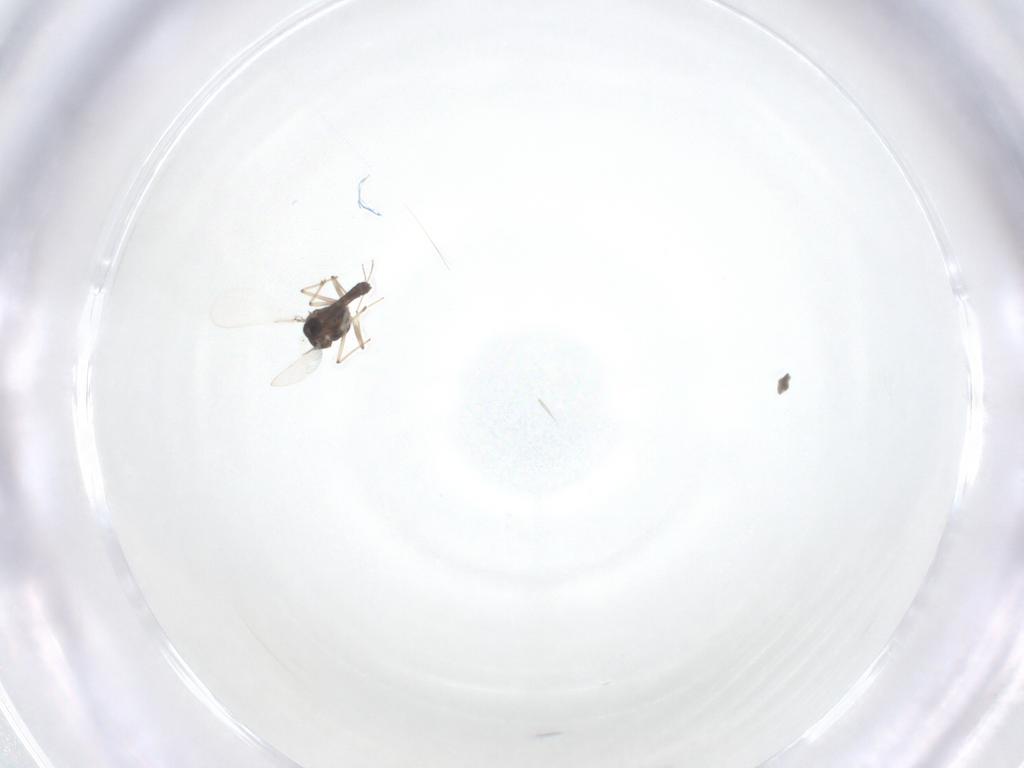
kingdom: Animalia
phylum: Arthropoda
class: Insecta
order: Diptera
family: Chironomidae
